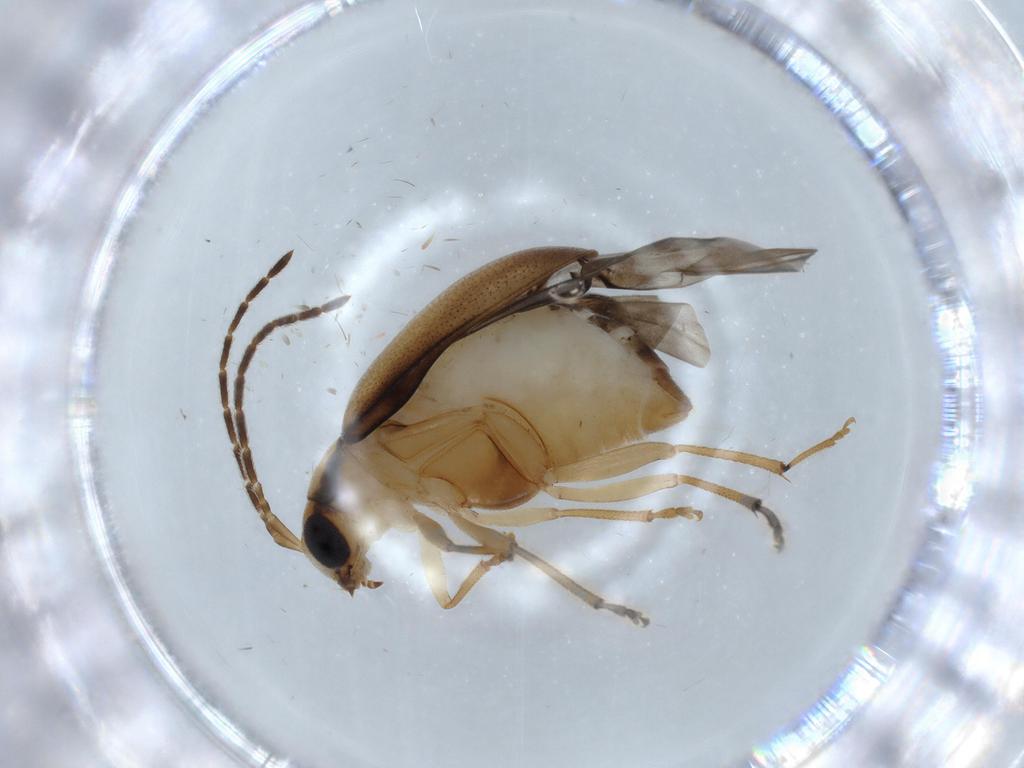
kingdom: Animalia
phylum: Arthropoda
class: Insecta
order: Coleoptera
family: Chrysomelidae
